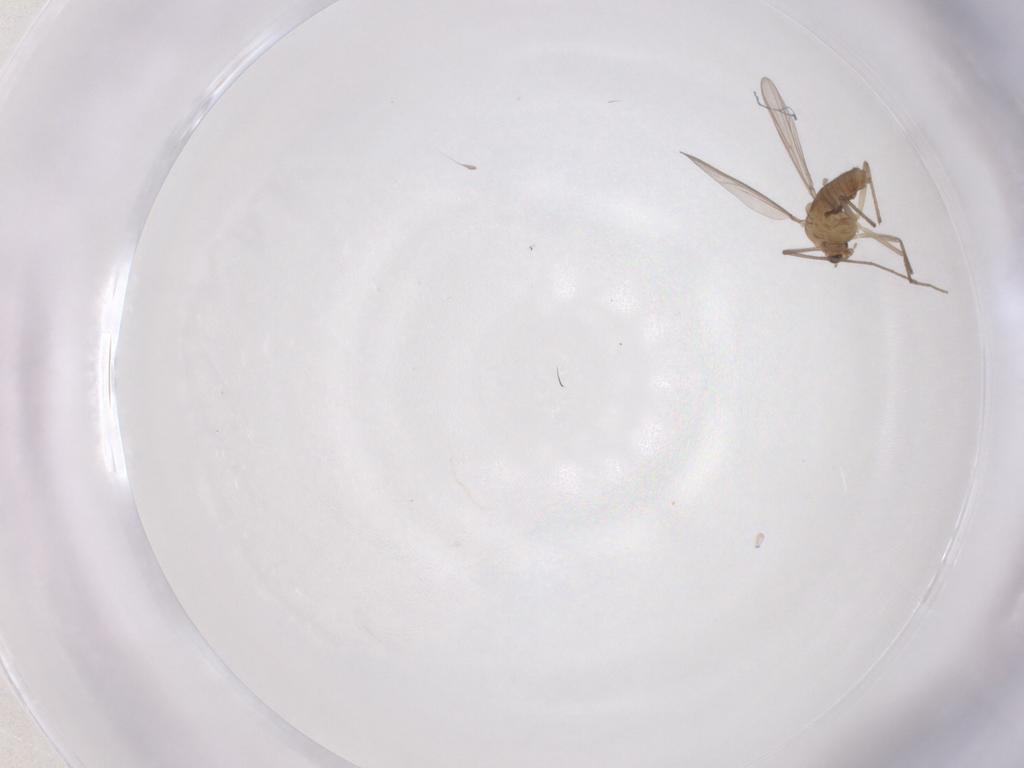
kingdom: Animalia
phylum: Arthropoda
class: Insecta
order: Diptera
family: Chironomidae
